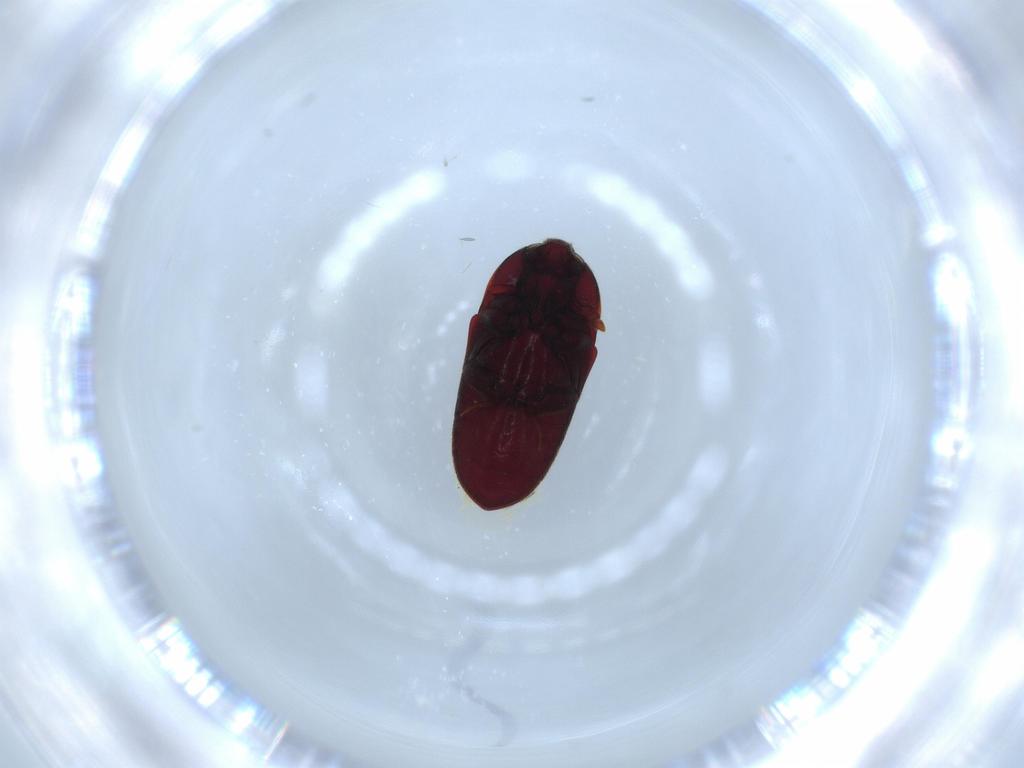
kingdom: Animalia
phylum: Arthropoda
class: Insecta
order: Coleoptera
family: Throscidae
